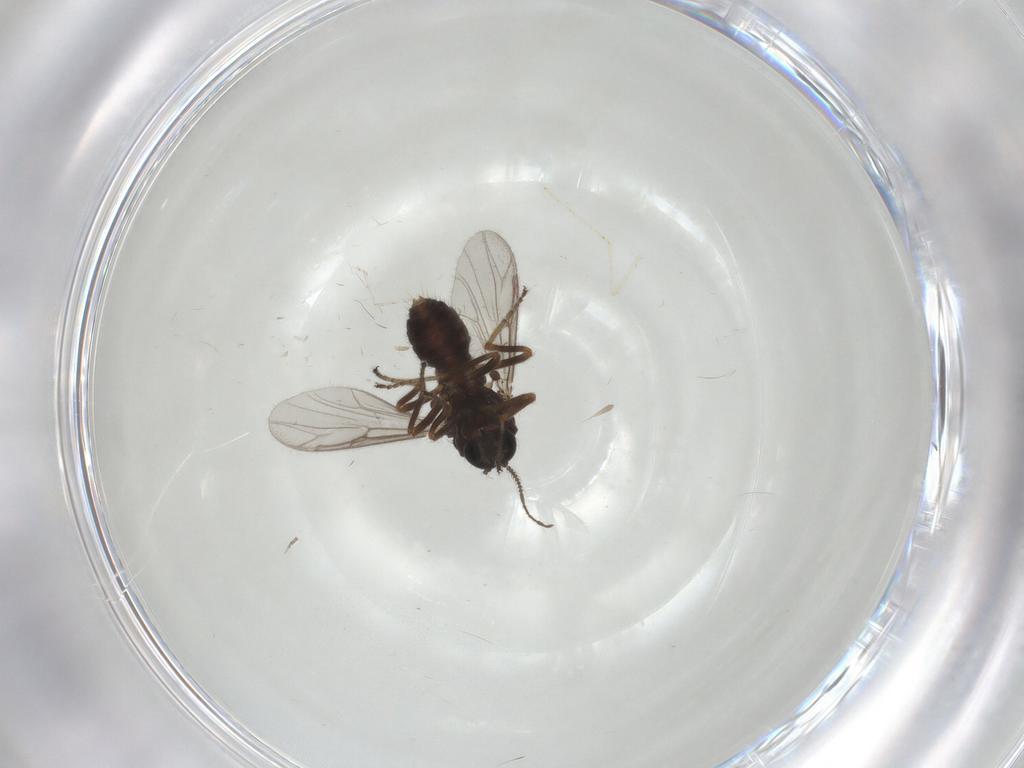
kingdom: Animalia
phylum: Arthropoda
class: Insecta
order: Diptera
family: Ceratopogonidae
